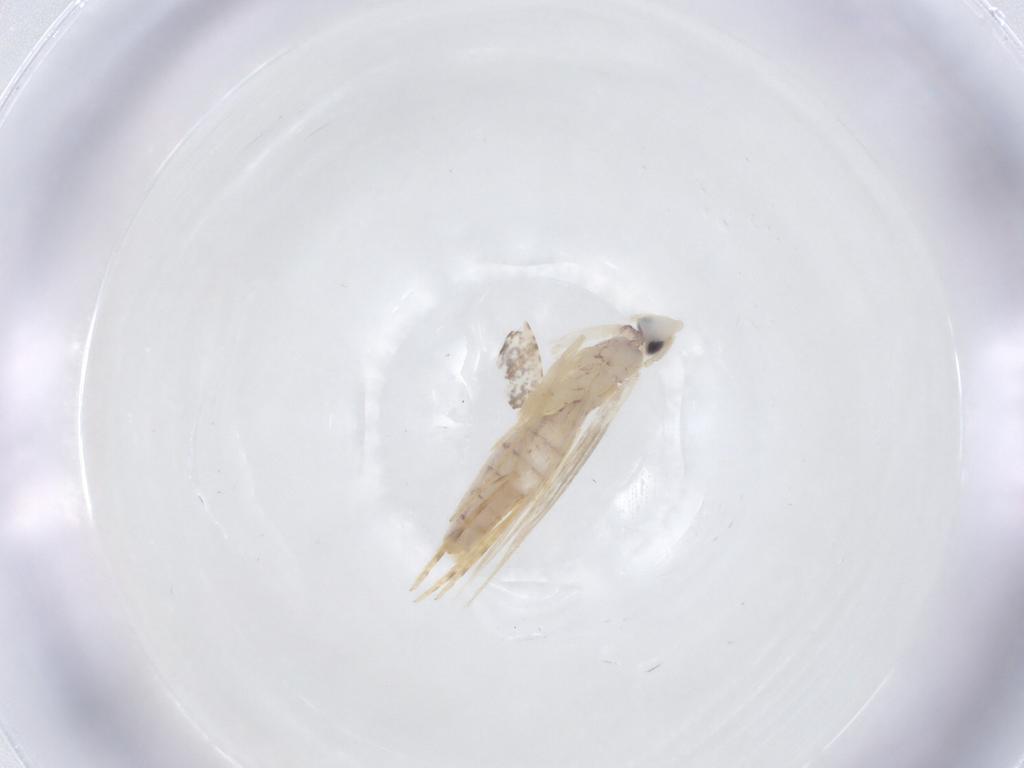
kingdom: Animalia
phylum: Arthropoda
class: Insecta
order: Lepidoptera
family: Tineidae
